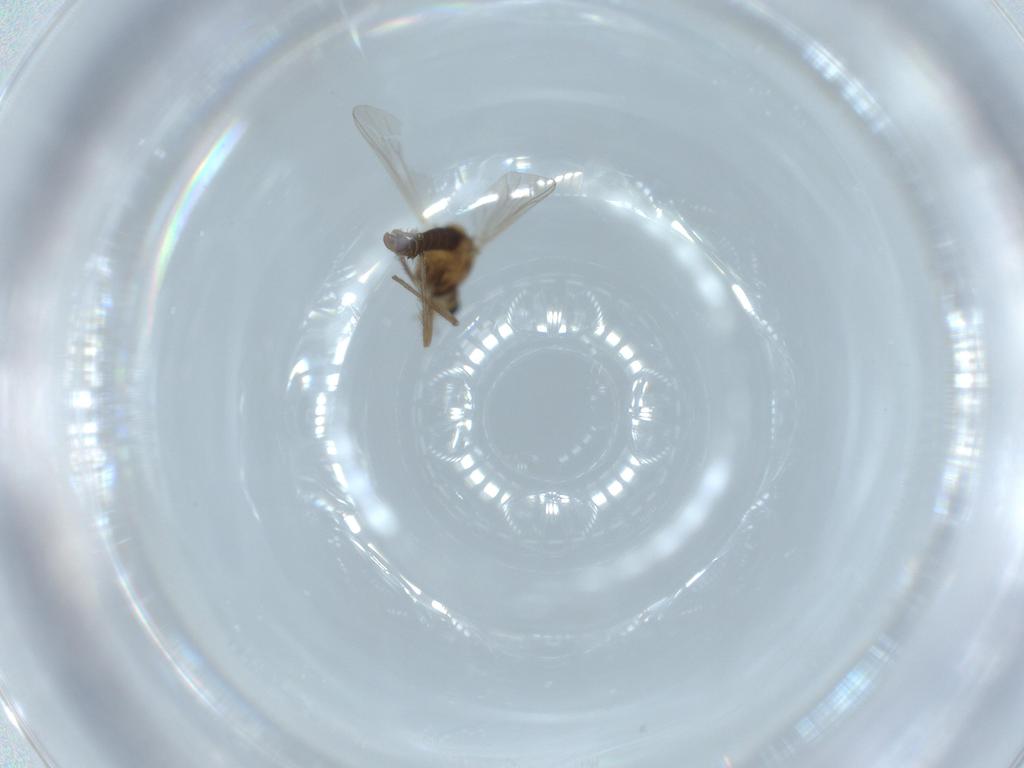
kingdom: Animalia
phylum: Arthropoda
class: Insecta
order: Diptera
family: Chironomidae
